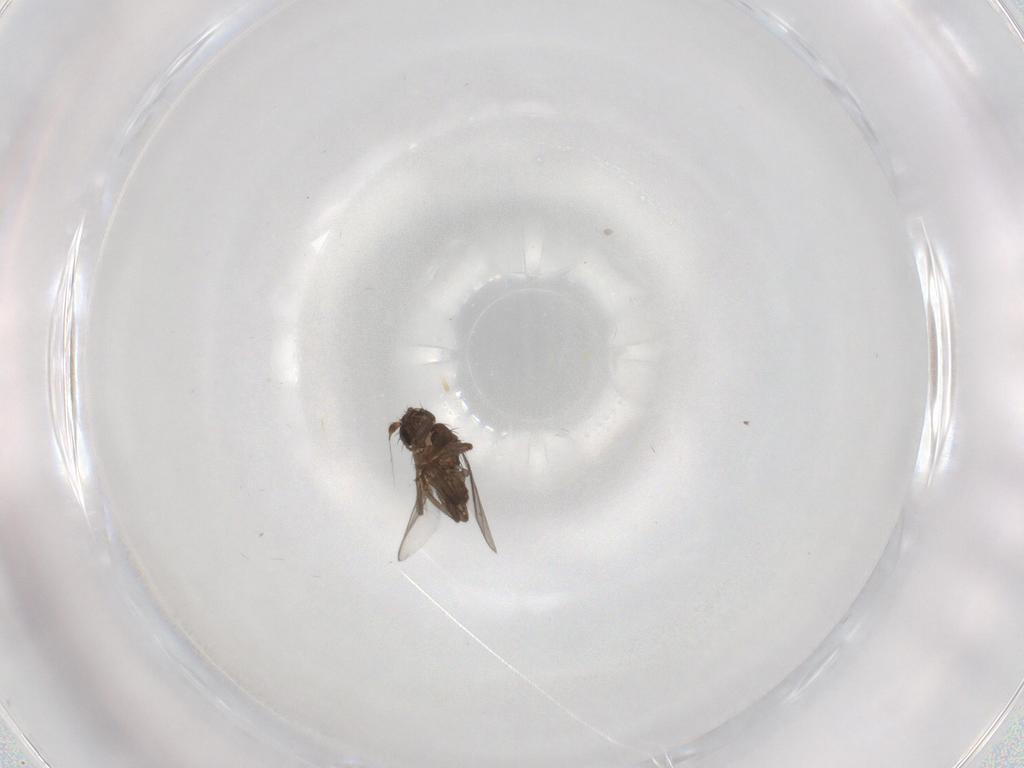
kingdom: Animalia
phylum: Arthropoda
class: Insecta
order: Diptera
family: Sphaeroceridae
